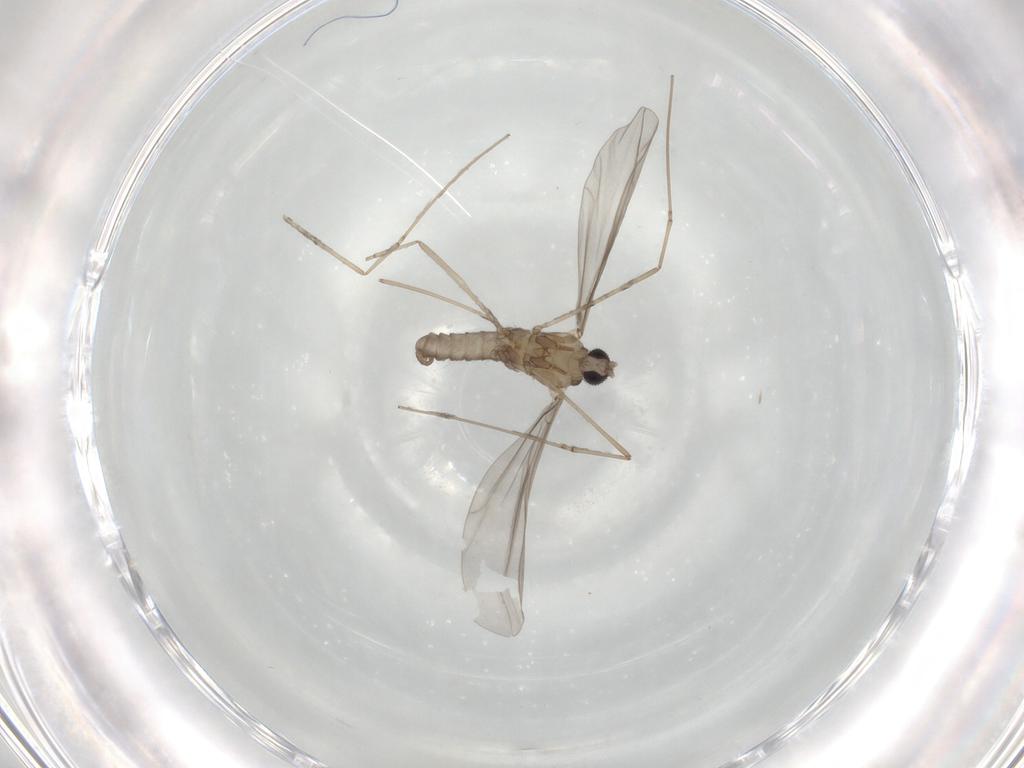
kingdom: Animalia
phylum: Arthropoda
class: Insecta
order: Diptera
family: Cecidomyiidae
